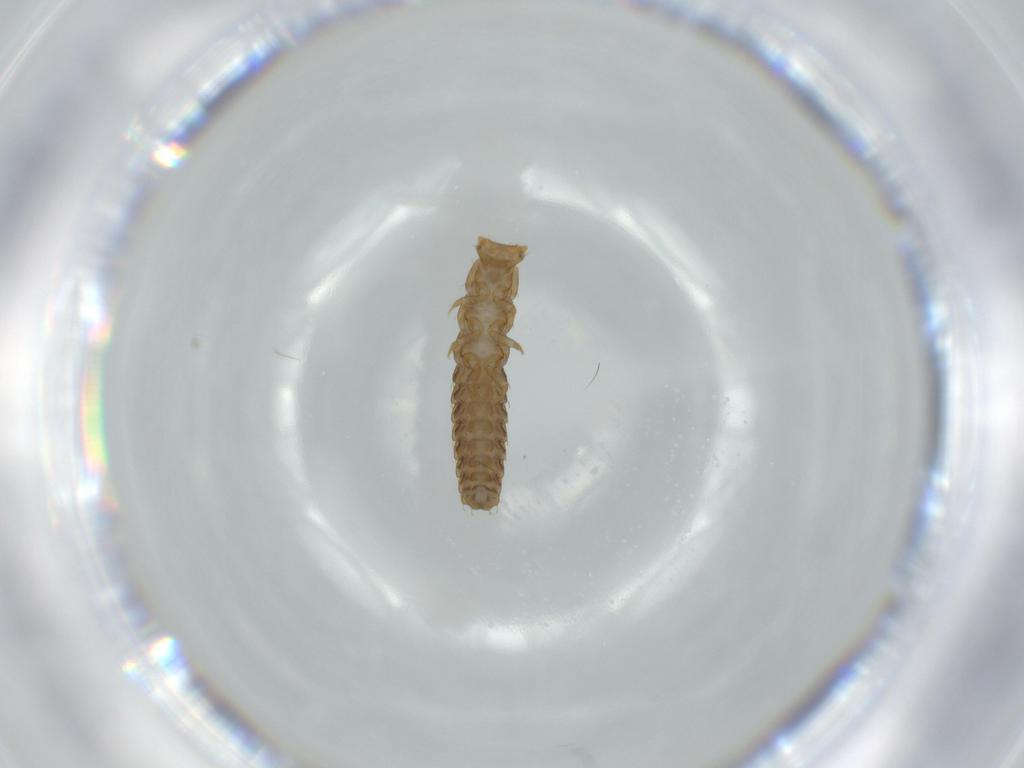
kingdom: Animalia
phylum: Arthropoda
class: Insecta
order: Coleoptera
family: Lycidae
